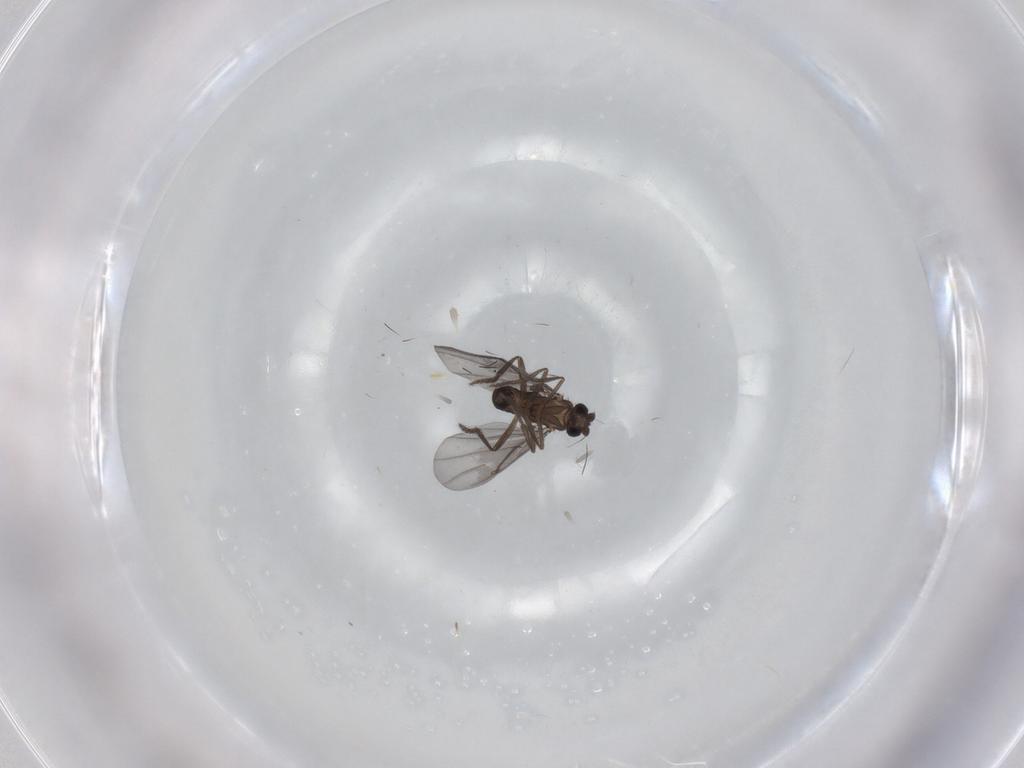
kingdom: Animalia
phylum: Arthropoda
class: Insecta
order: Diptera
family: Phoridae
